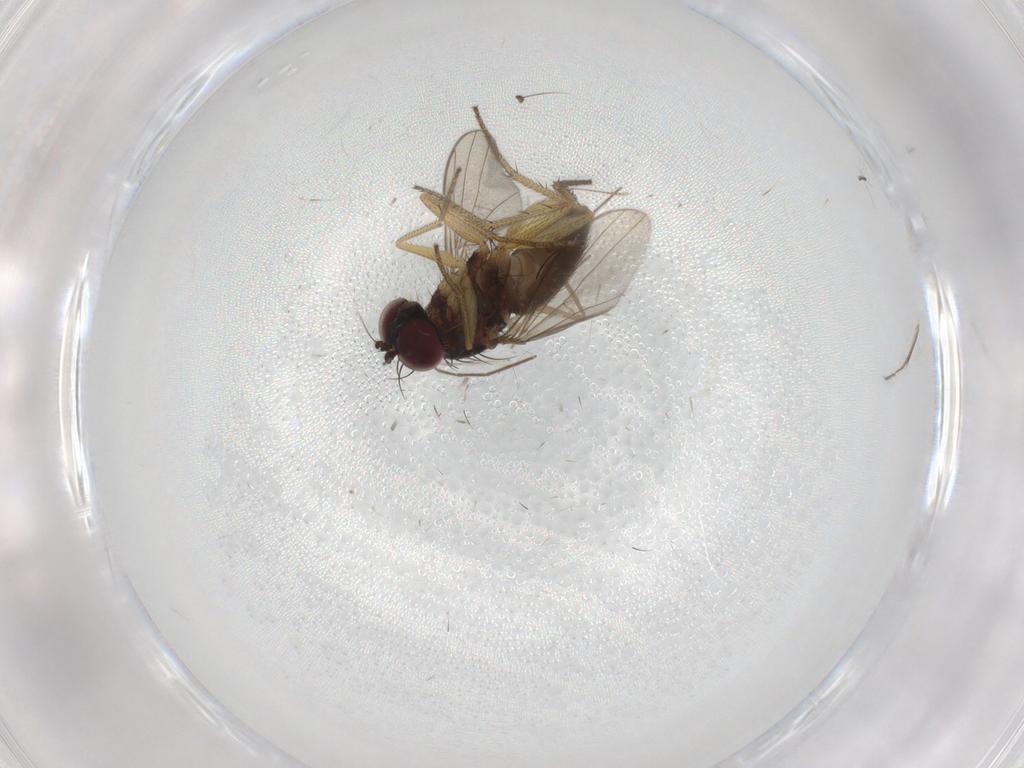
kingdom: Animalia
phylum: Arthropoda
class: Insecta
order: Diptera
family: Chironomidae
